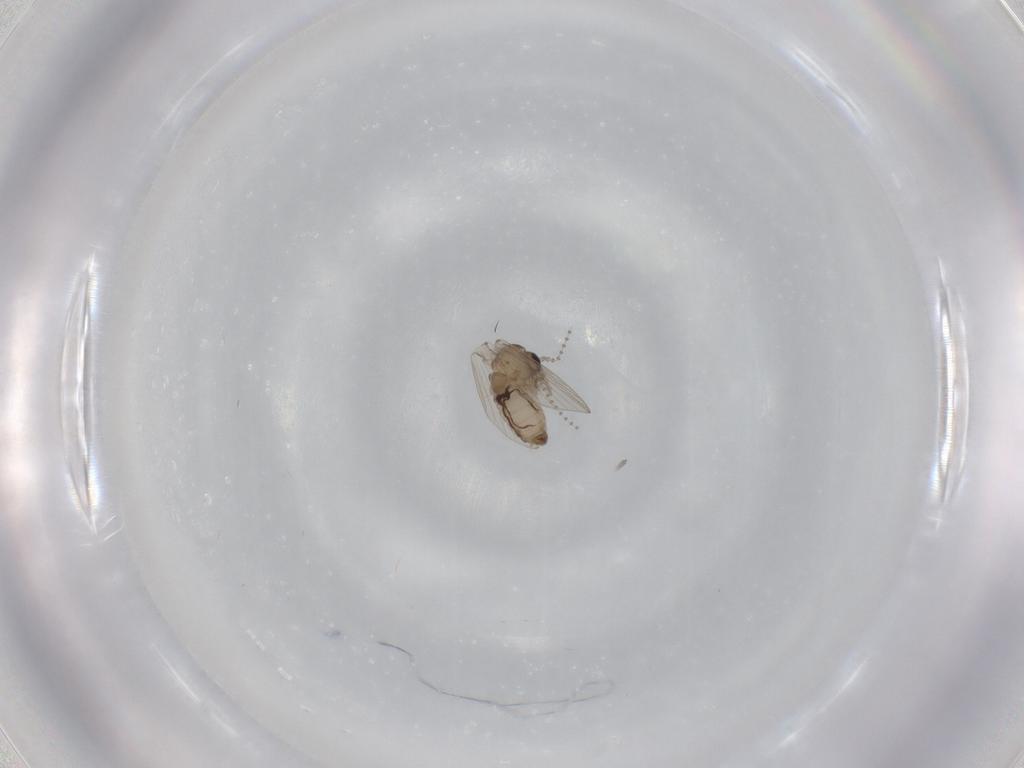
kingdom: Animalia
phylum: Arthropoda
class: Insecta
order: Diptera
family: Psychodidae
